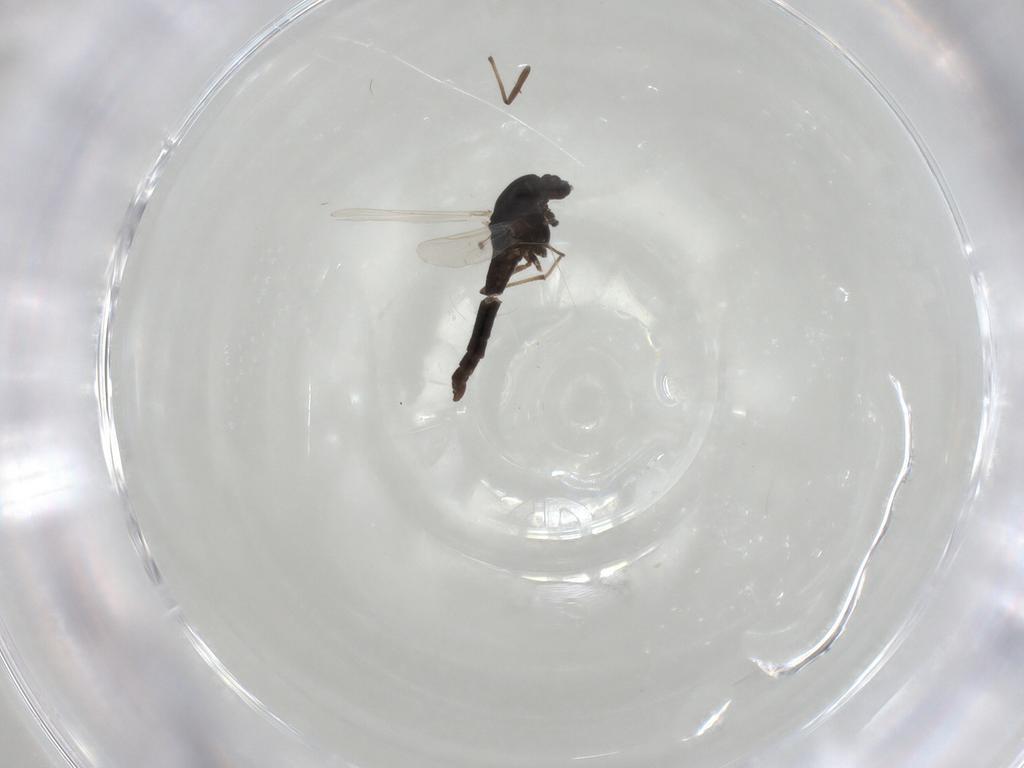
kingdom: Animalia
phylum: Arthropoda
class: Insecta
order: Diptera
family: Chironomidae
